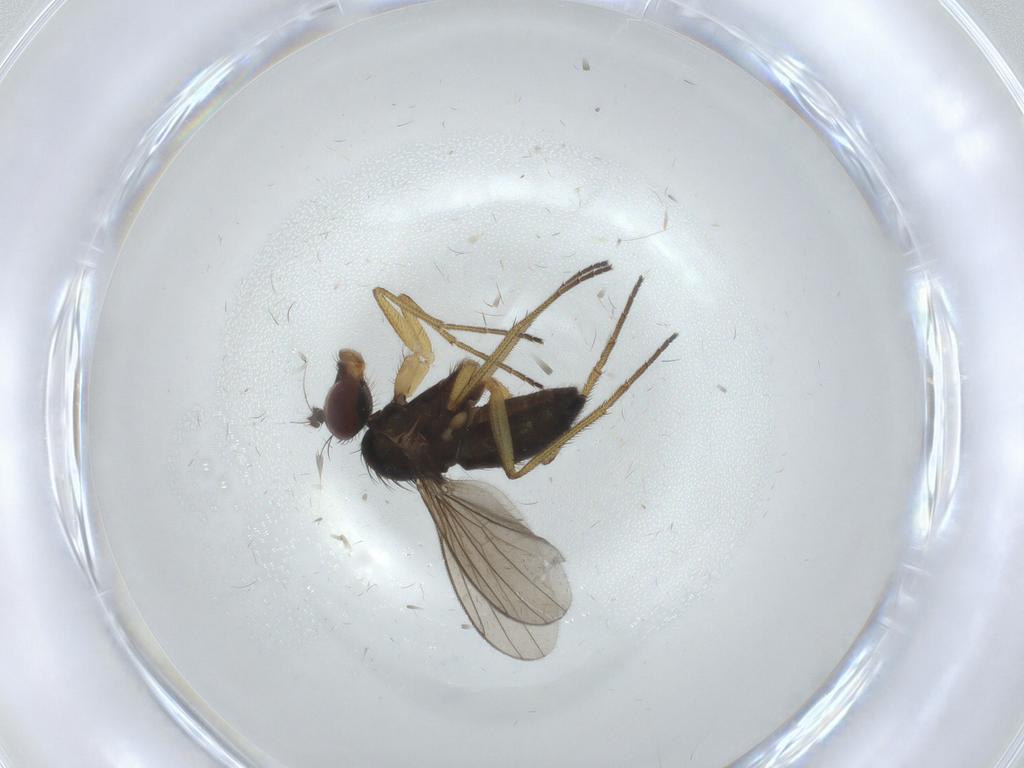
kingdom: Animalia
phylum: Arthropoda
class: Insecta
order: Diptera
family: Dolichopodidae
